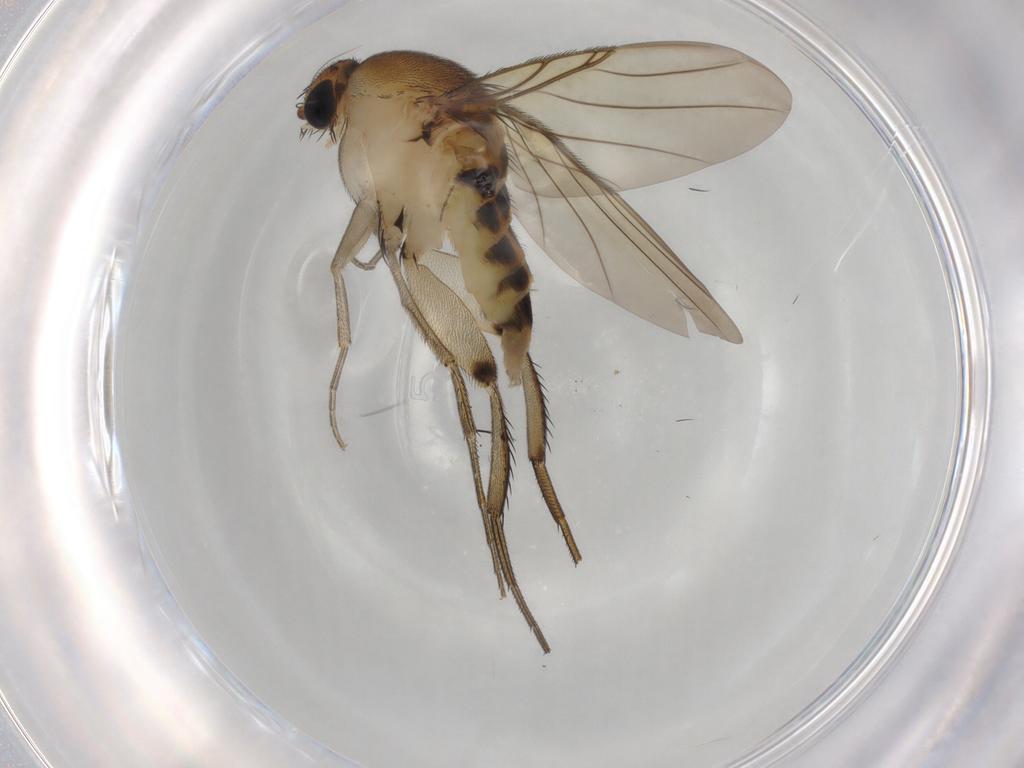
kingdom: Animalia
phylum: Arthropoda
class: Insecta
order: Diptera
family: Phoridae
